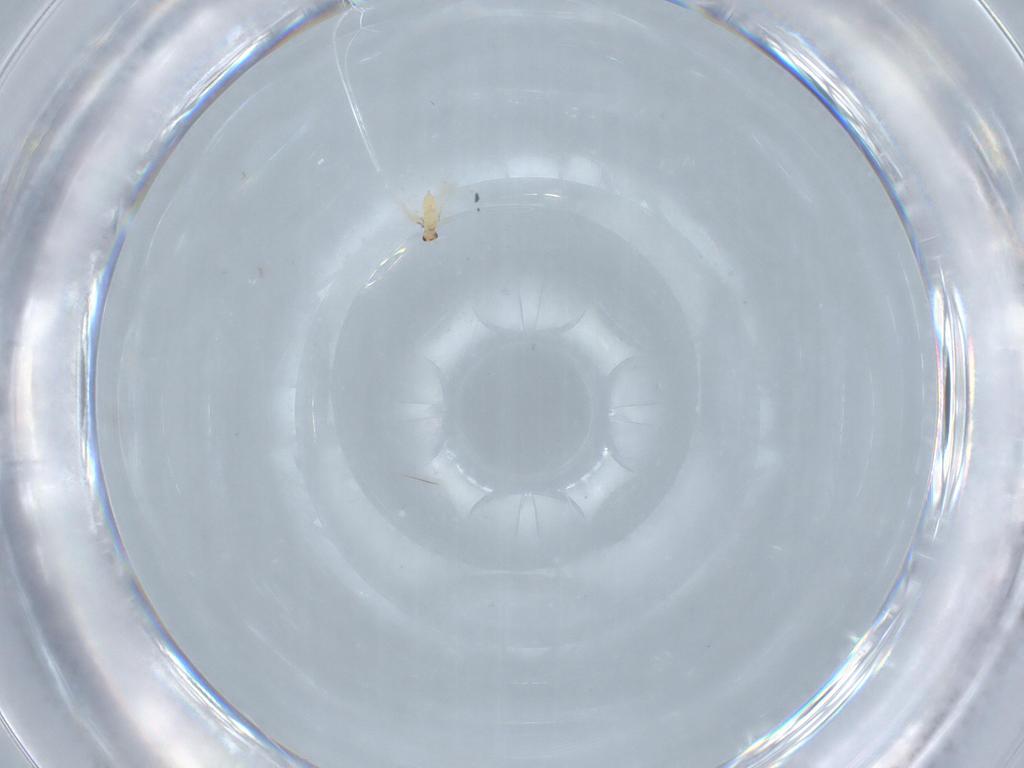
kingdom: Animalia
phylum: Arthropoda
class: Insecta
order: Hymenoptera
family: Mymaridae
